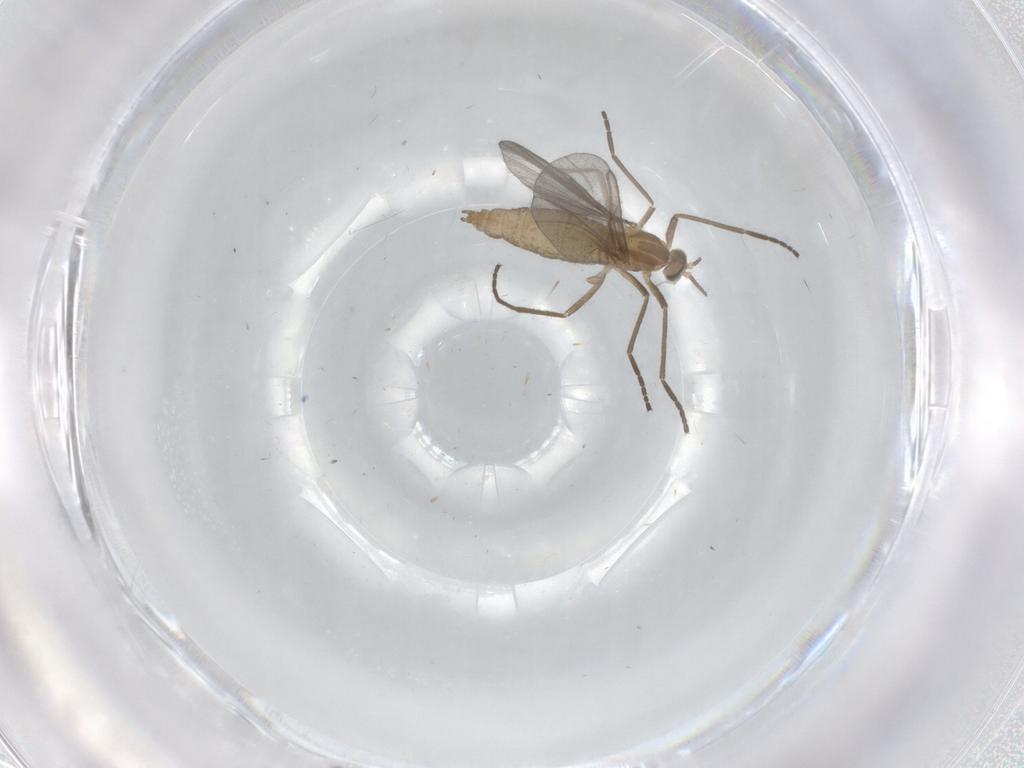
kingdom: Animalia
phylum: Arthropoda
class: Insecta
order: Diptera
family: Cecidomyiidae
